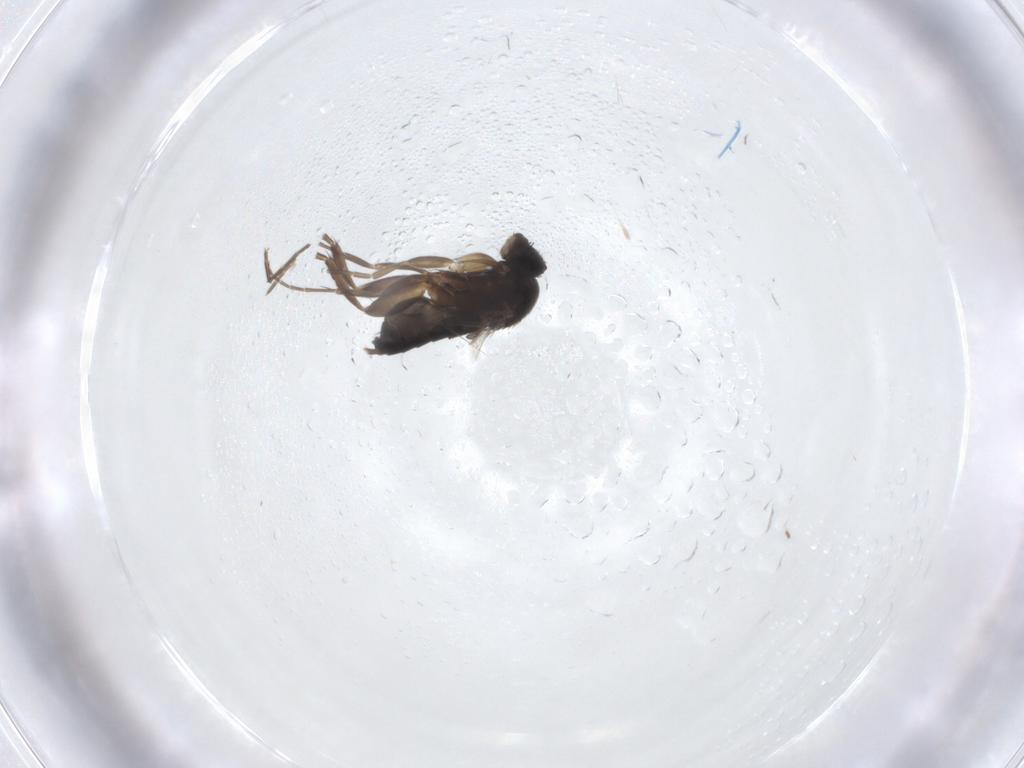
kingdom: Animalia
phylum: Arthropoda
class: Insecta
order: Diptera
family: Phoridae
